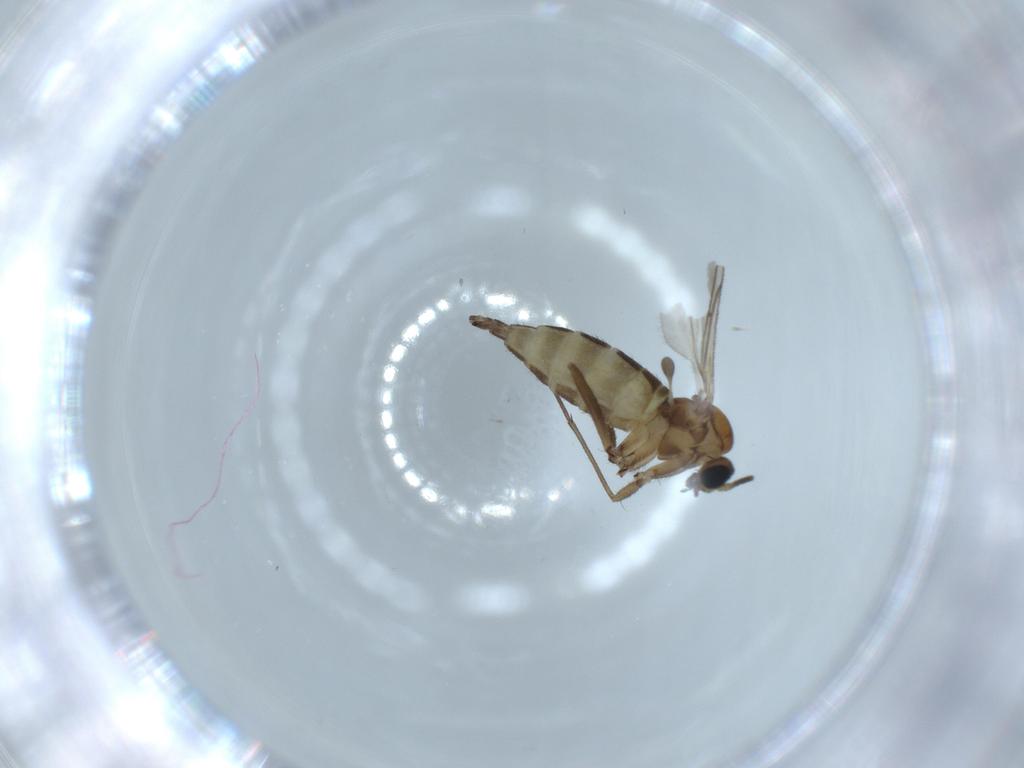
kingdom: Animalia
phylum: Arthropoda
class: Insecta
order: Diptera
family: Sciaridae
